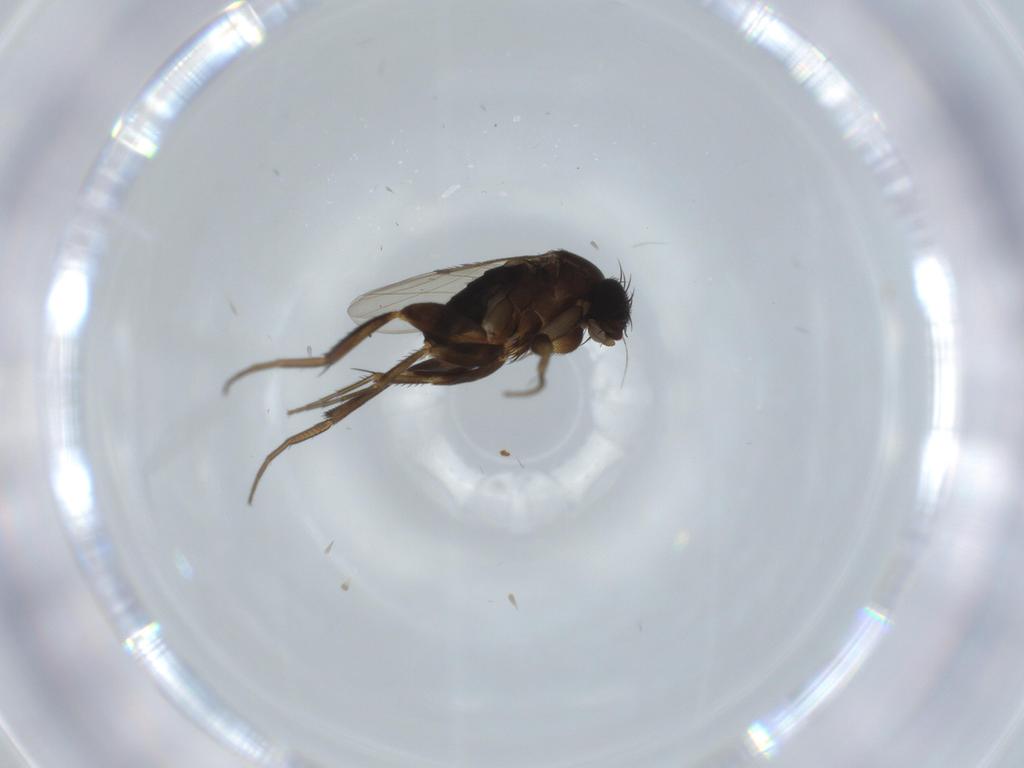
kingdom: Animalia
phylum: Arthropoda
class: Insecta
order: Diptera
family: Phoridae
